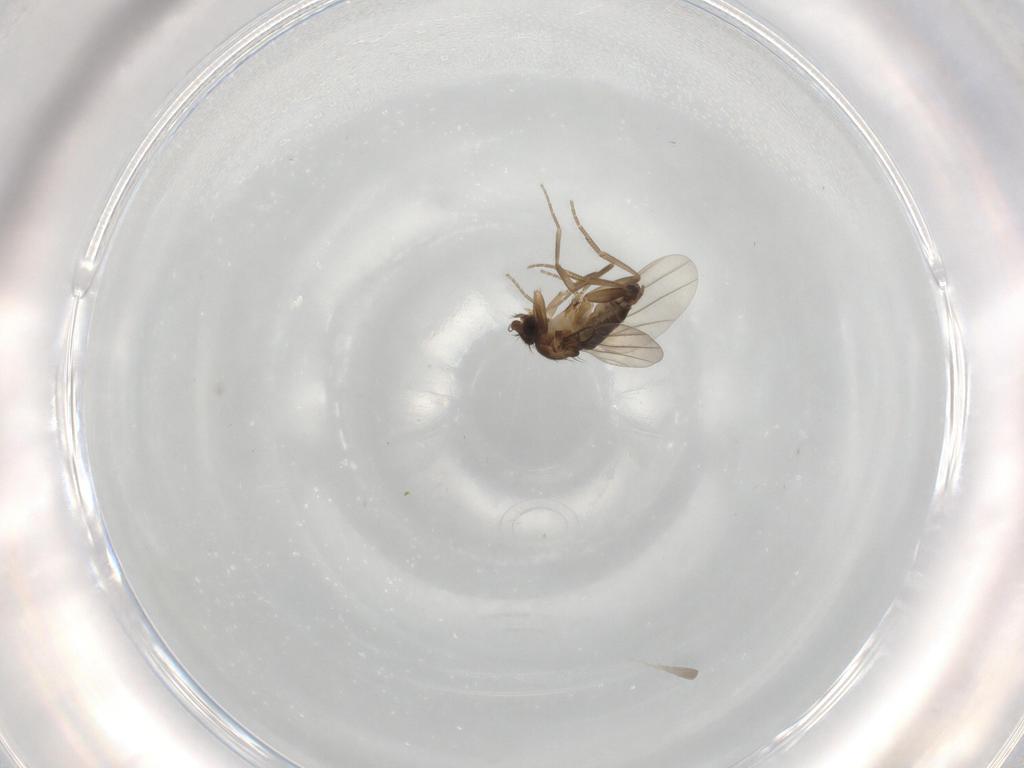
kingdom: Animalia
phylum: Arthropoda
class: Insecta
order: Diptera
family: Phoridae
